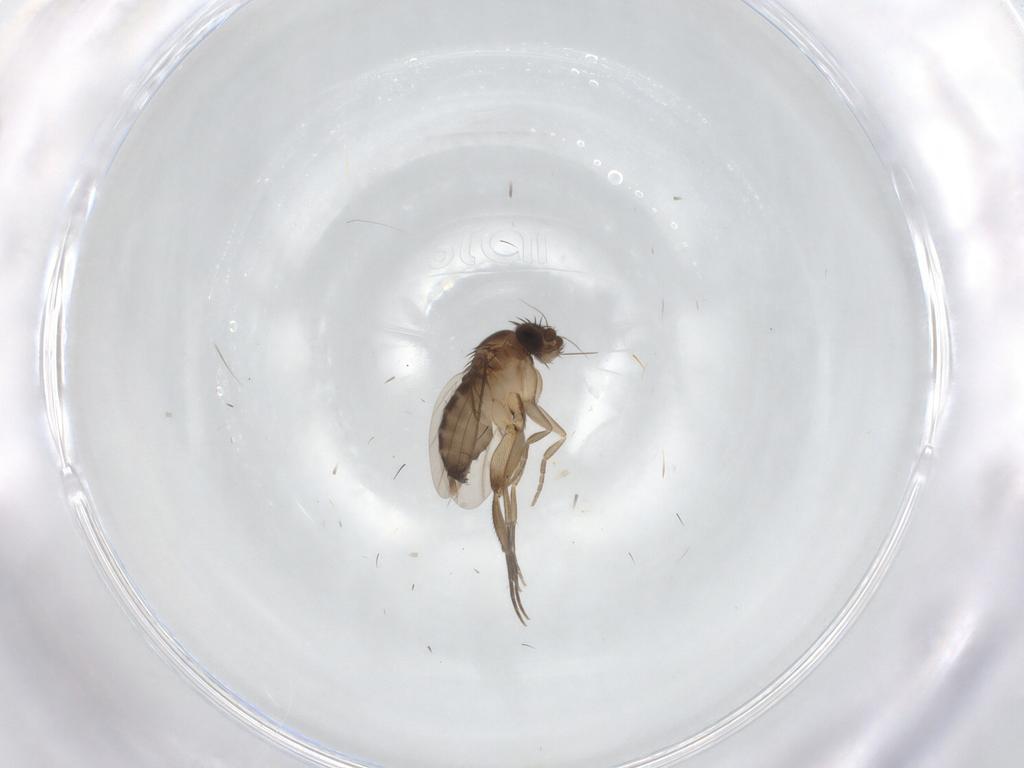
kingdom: Animalia
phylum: Arthropoda
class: Insecta
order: Diptera
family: Phoridae
